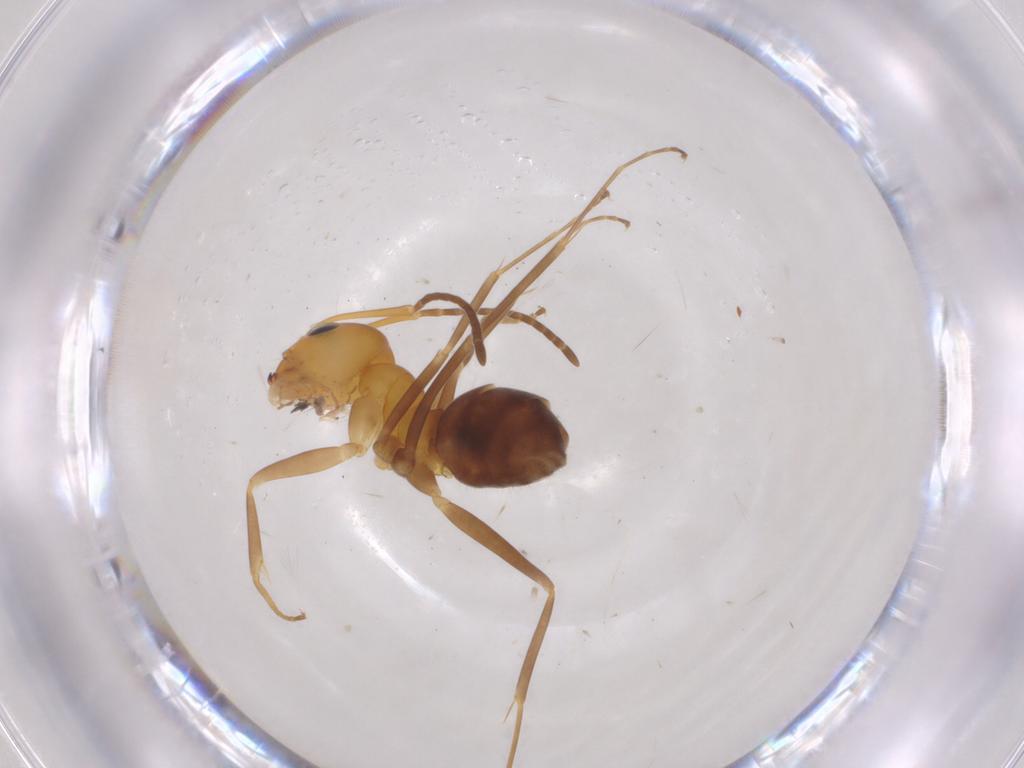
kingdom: Animalia
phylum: Arthropoda
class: Insecta
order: Hymenoptera
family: Formicidae
